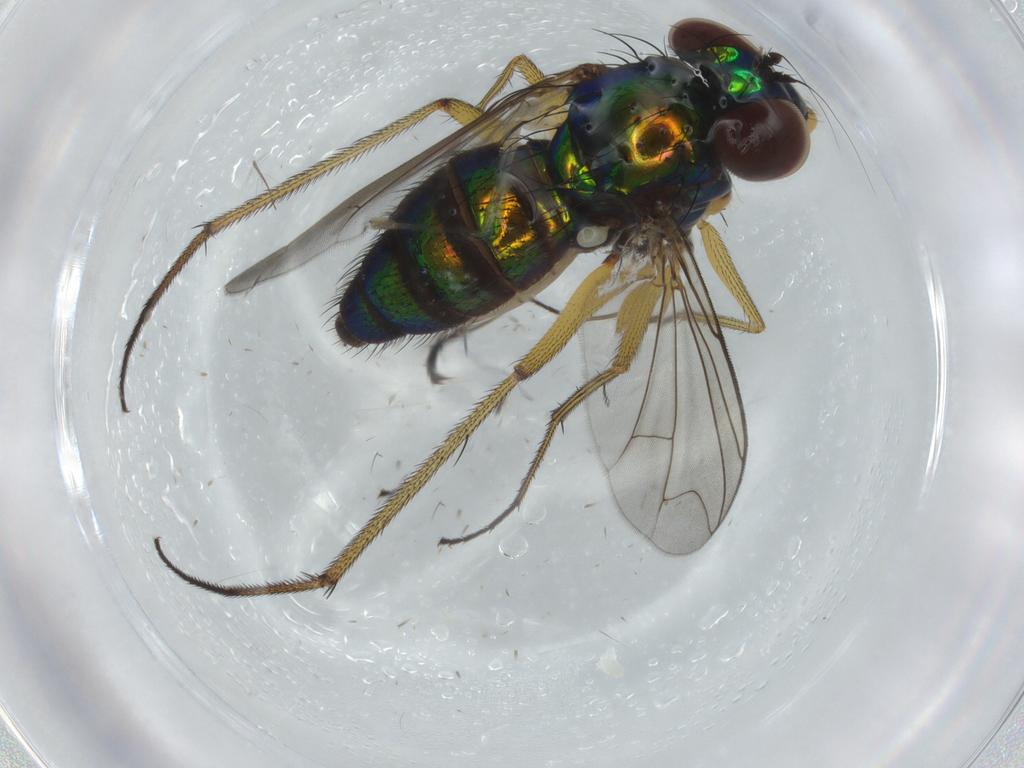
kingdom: Animalia
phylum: Arthropoda
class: Insecta
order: Diptera
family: Dolichopodidae
